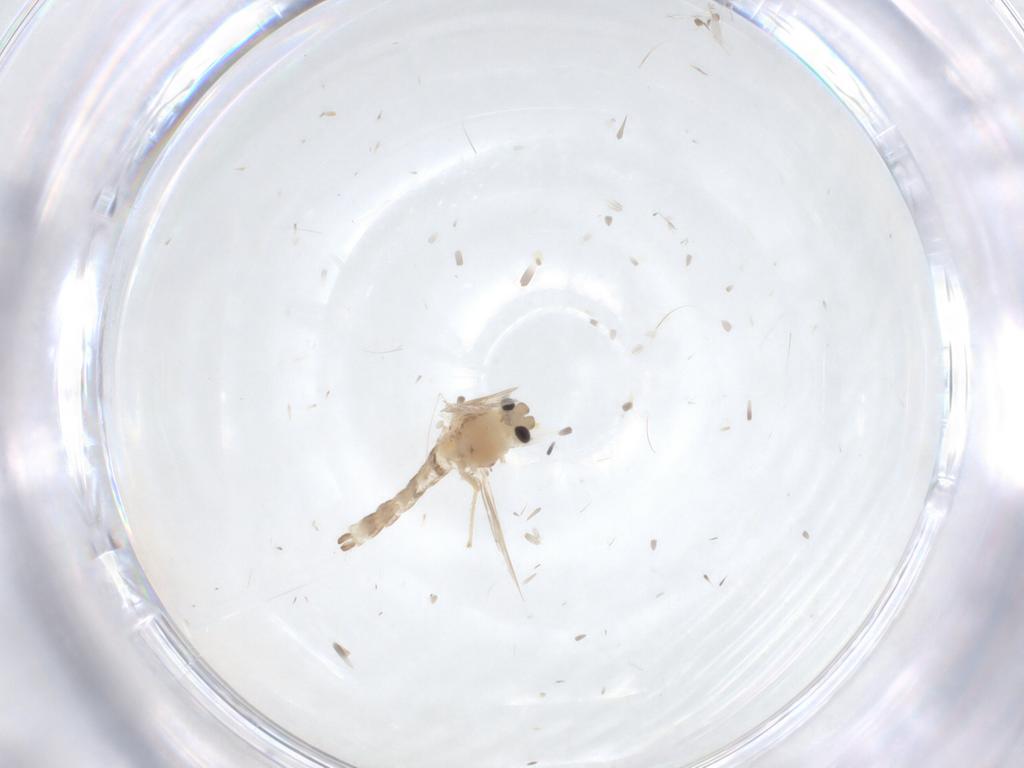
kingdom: Animalia
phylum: Arthropoda
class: Insecta
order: Diptera
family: Chironomidae
